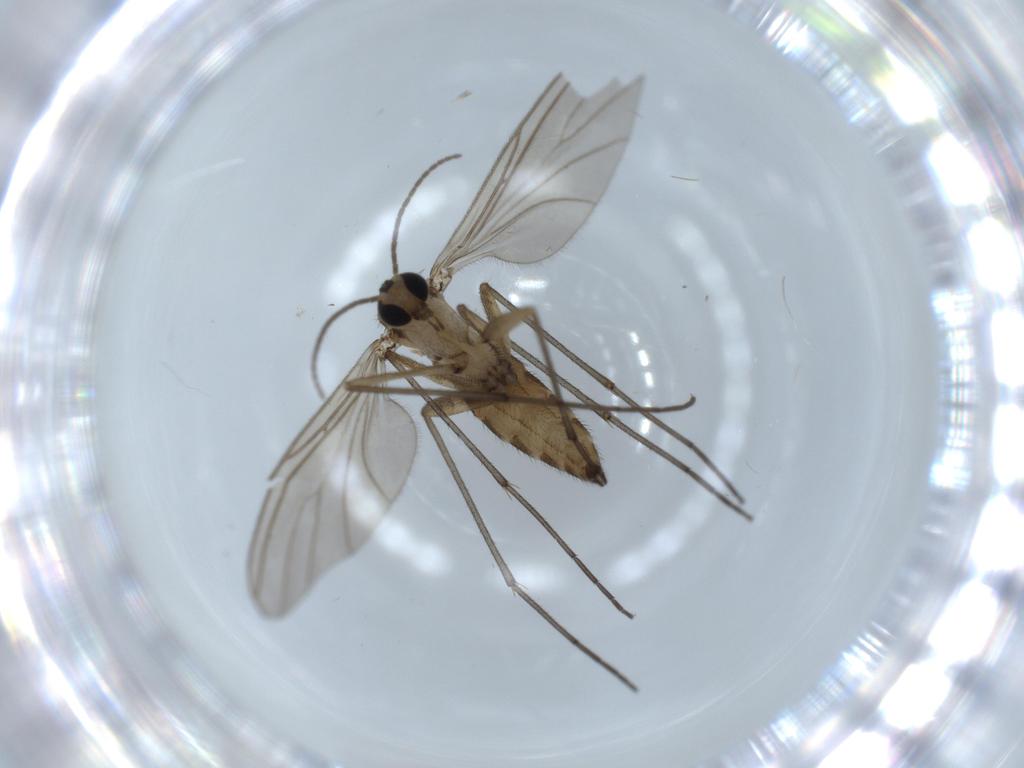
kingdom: Animalia
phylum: Arthropoda
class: Insecta
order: Diptera
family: Sciaridae
